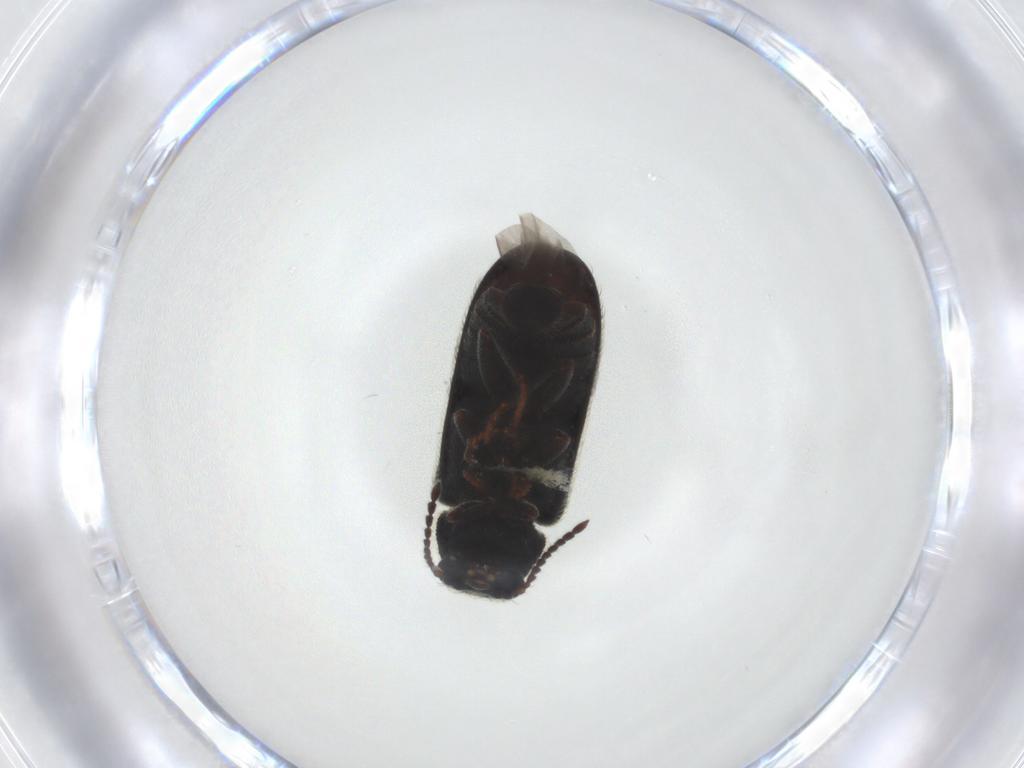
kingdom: Animalia
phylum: Arthropoda
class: Insecta
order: Coleoptera
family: Dasytidae
